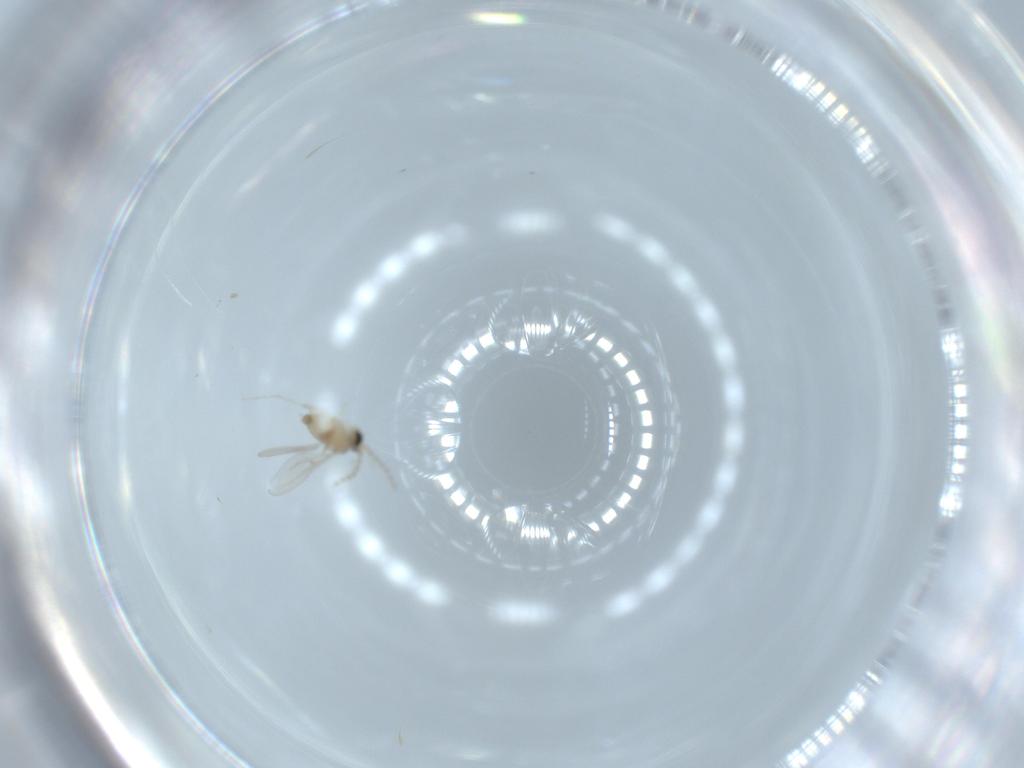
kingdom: Animalia
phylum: Arthropoda
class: Insecta
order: Diptera
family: Cecidomyiidae
